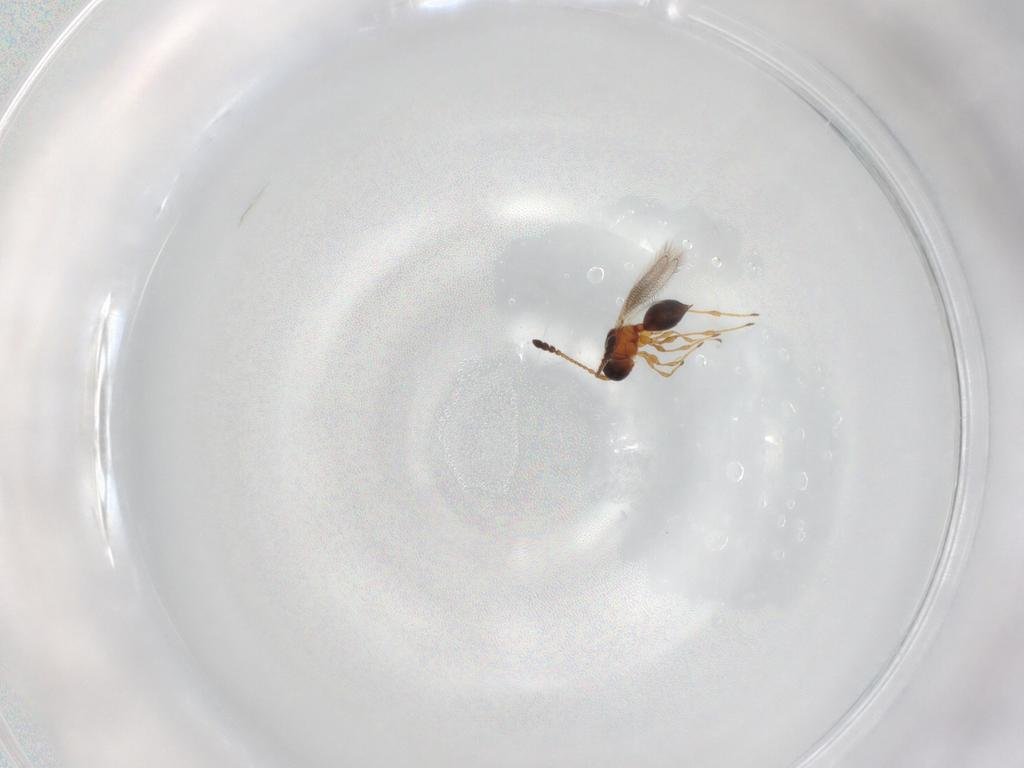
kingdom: Animalia
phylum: Arthropoda
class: Insecta
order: Hymenoptera
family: Diapriidae
